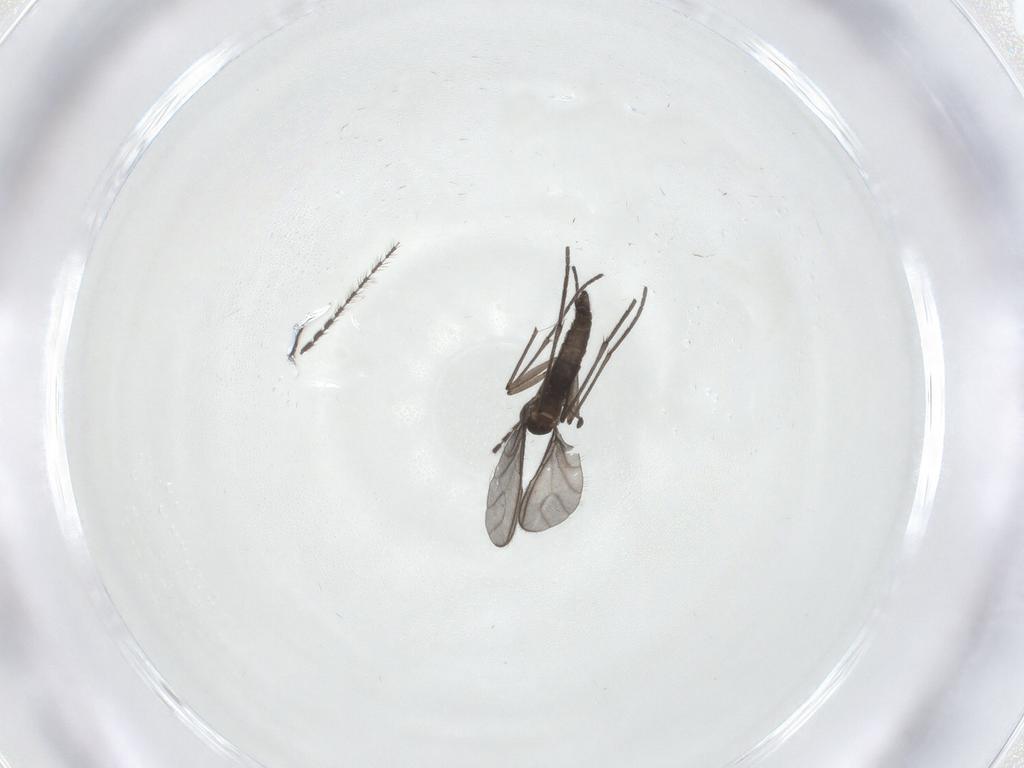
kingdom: Animalia
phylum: Arthropoda
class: Insecta
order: Diptera
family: Sciaridae
